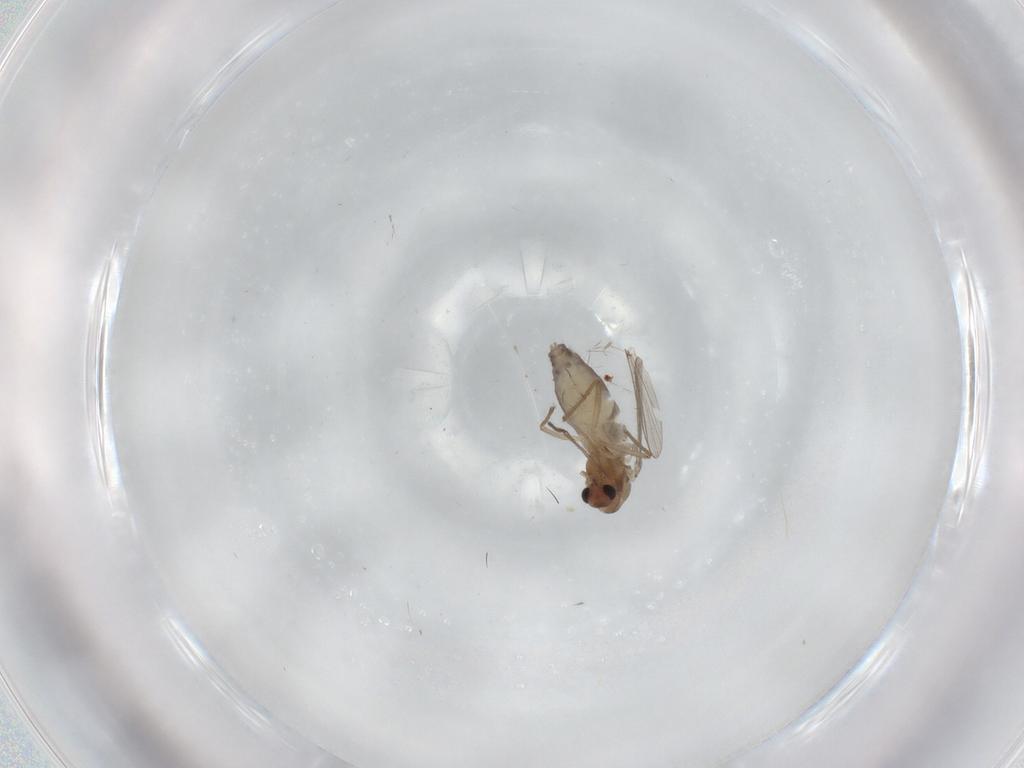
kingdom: Animalia
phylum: Arthropoda
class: Insecta
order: Diptera
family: Chironomidae
